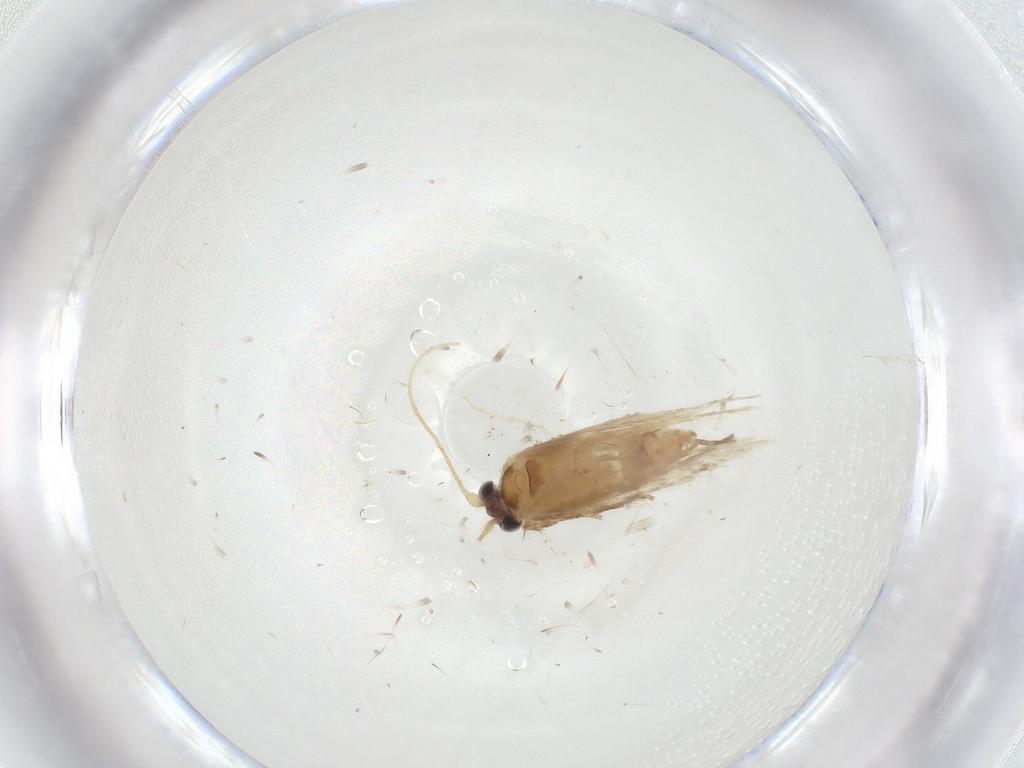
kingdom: Animalia
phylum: Arthropoda
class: Insecta
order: Lepidoptera
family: Nepticulidae
